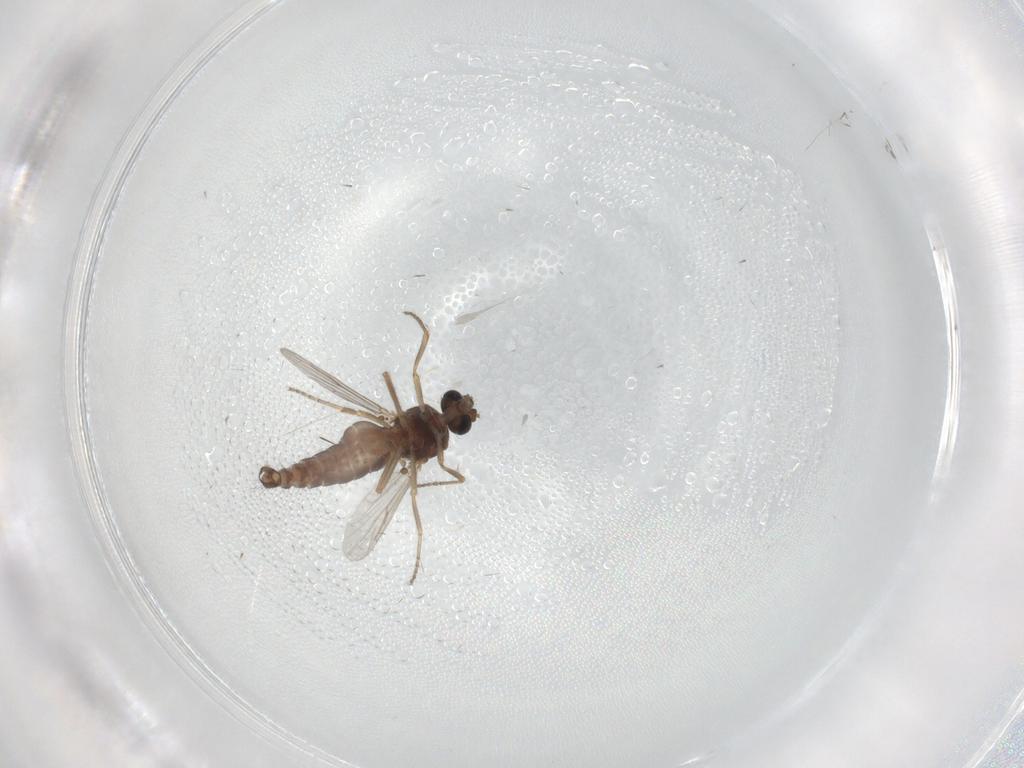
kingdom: Animalia
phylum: Arthropoda
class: Insecta
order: Diptera
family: Ceratopogonidae
